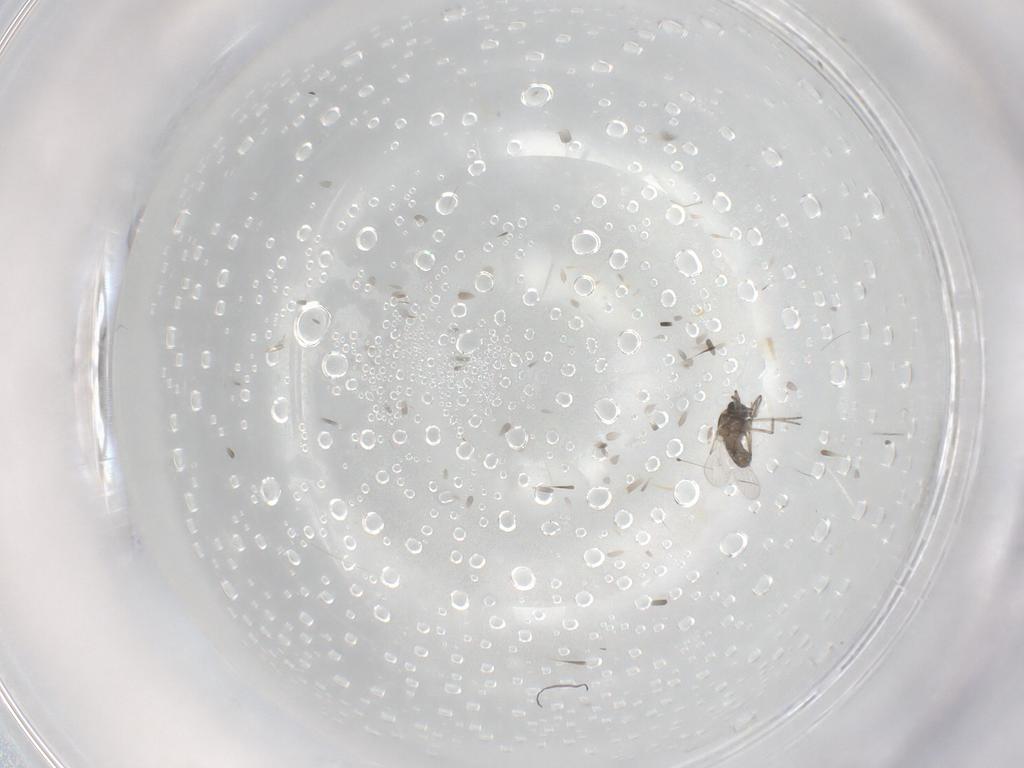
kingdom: Animalia
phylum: Arthropoda
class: Insecta
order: Diptera
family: Ceratopogonidae
